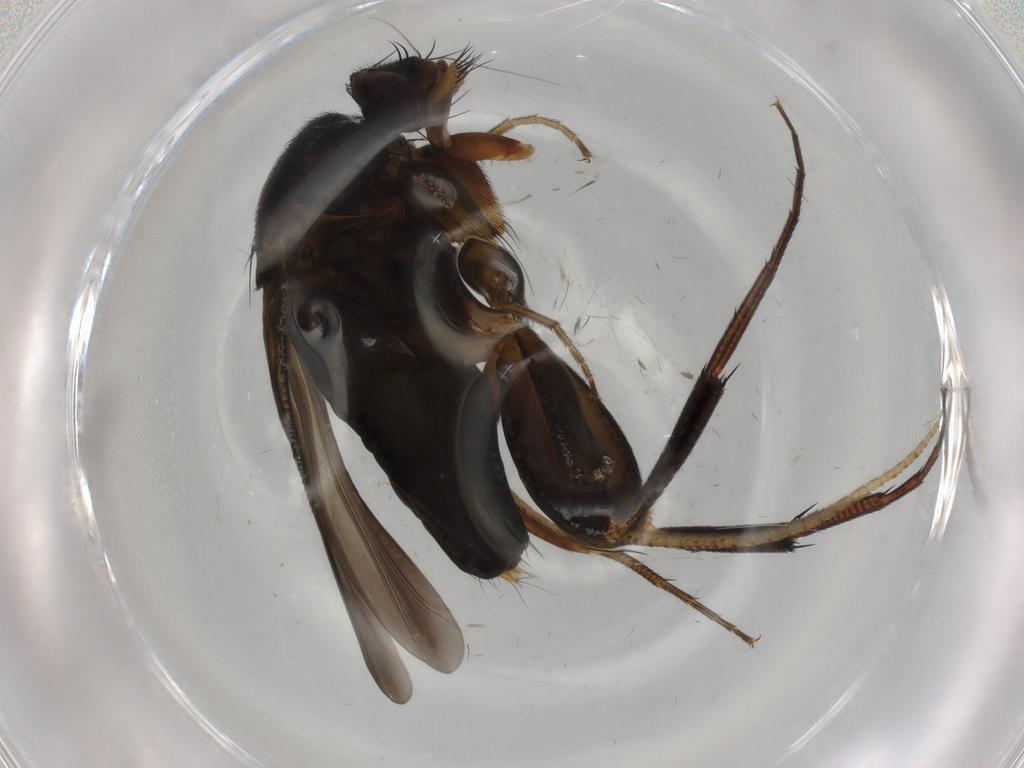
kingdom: Animalia
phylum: Arthropoda
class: Insecta
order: Diptera
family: Phoridae
